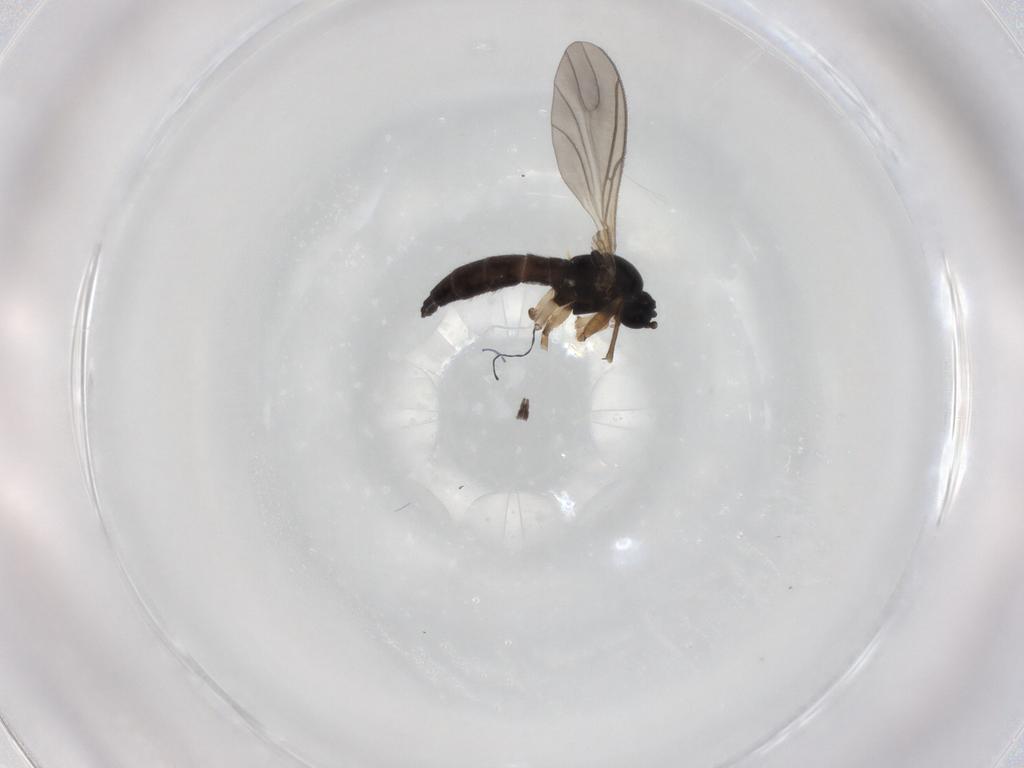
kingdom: Animalia
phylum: Arthropoda
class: Insecta
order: Diptera
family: Sciaridae
